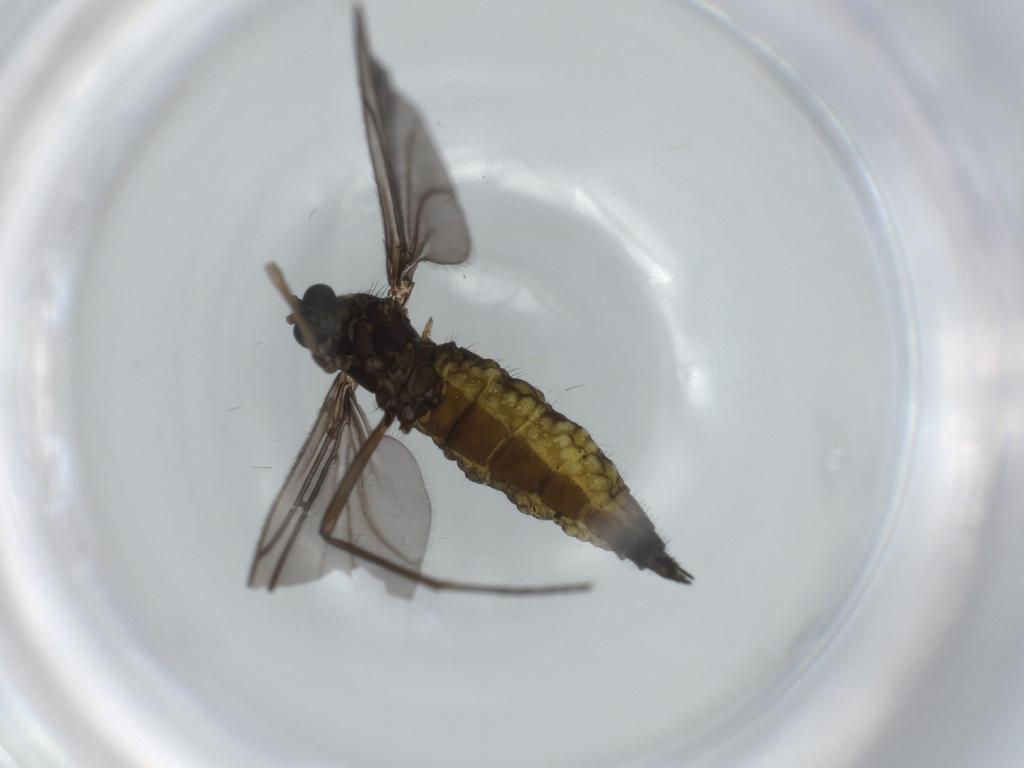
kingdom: Animalia
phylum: Arthropoda
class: Insecta
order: Diptera
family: Sciaridae
